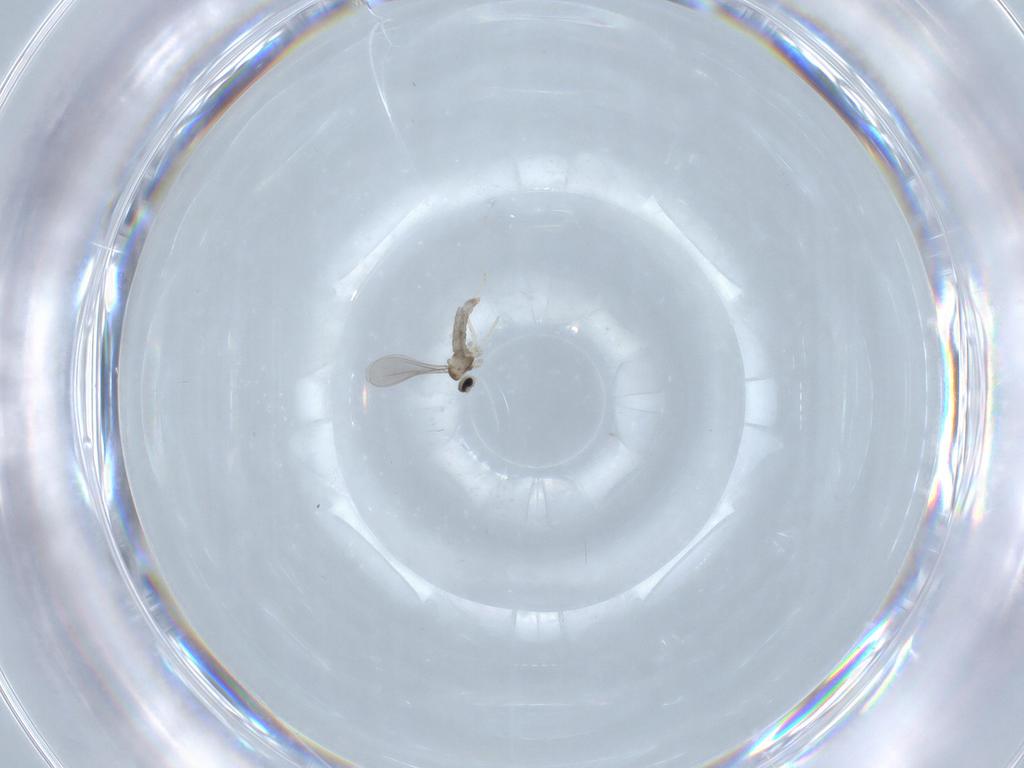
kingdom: Animalia
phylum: Arthropoda
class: Insecta
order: Diptera
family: Cecidomyiidae
